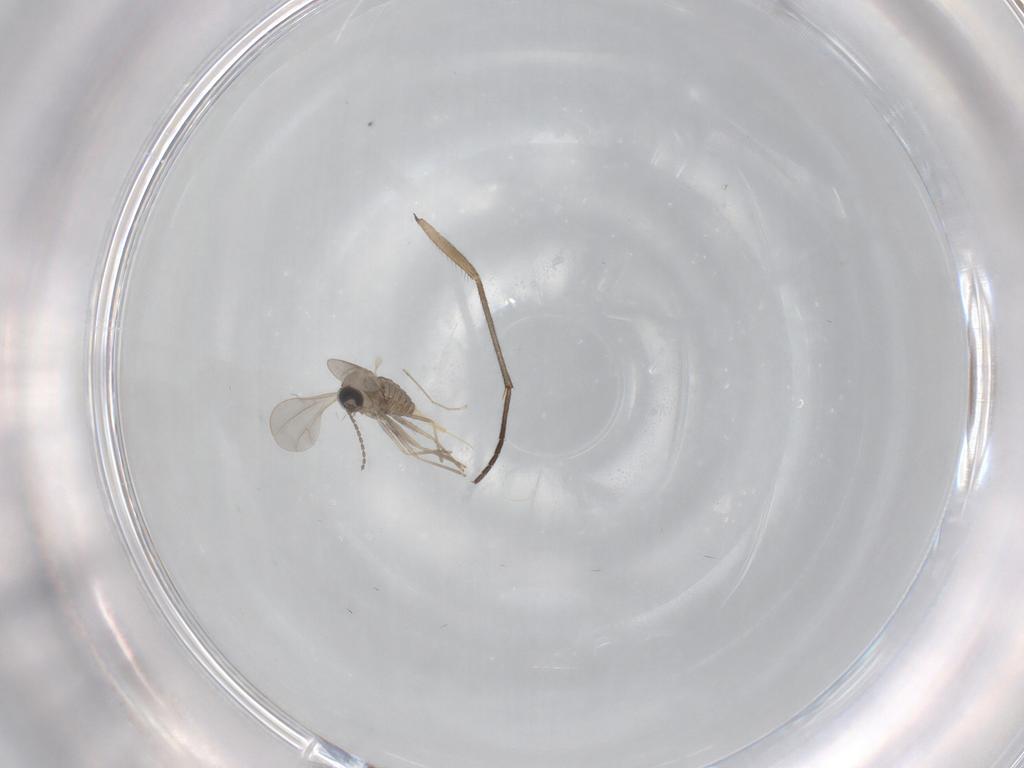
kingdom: Animalia
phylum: Arthropoda
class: Insecta
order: Diptera
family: Cecidomyiidae
